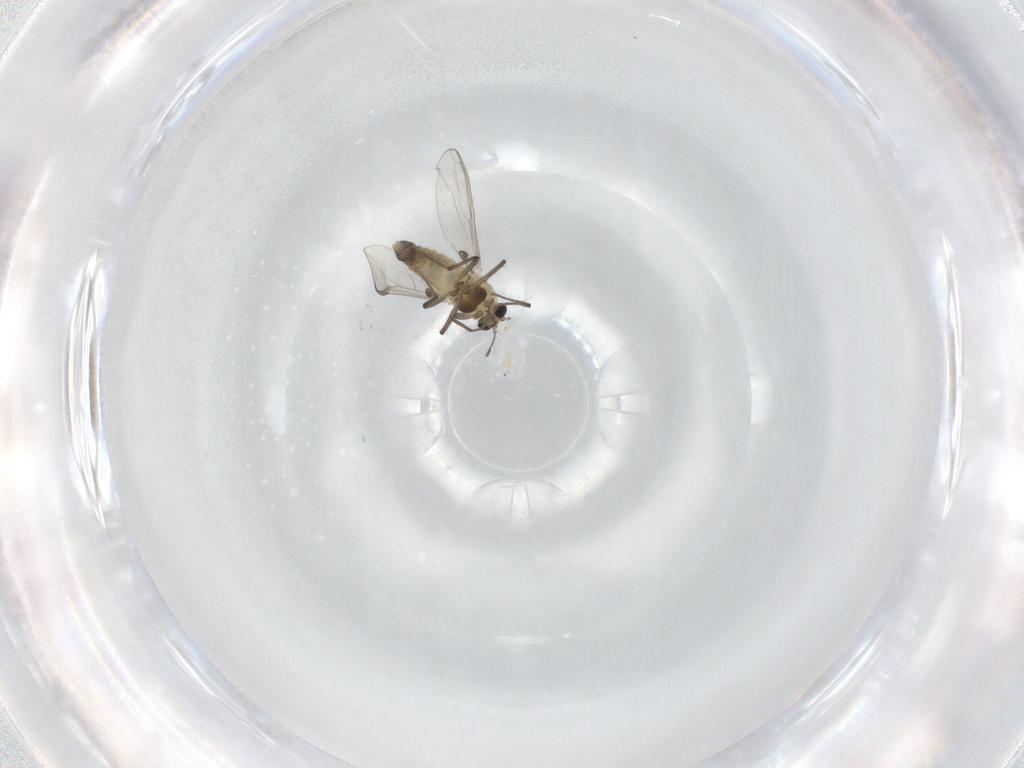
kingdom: Animalia
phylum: Arthropoda
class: Insecta
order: Diptera
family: Chironomidae
